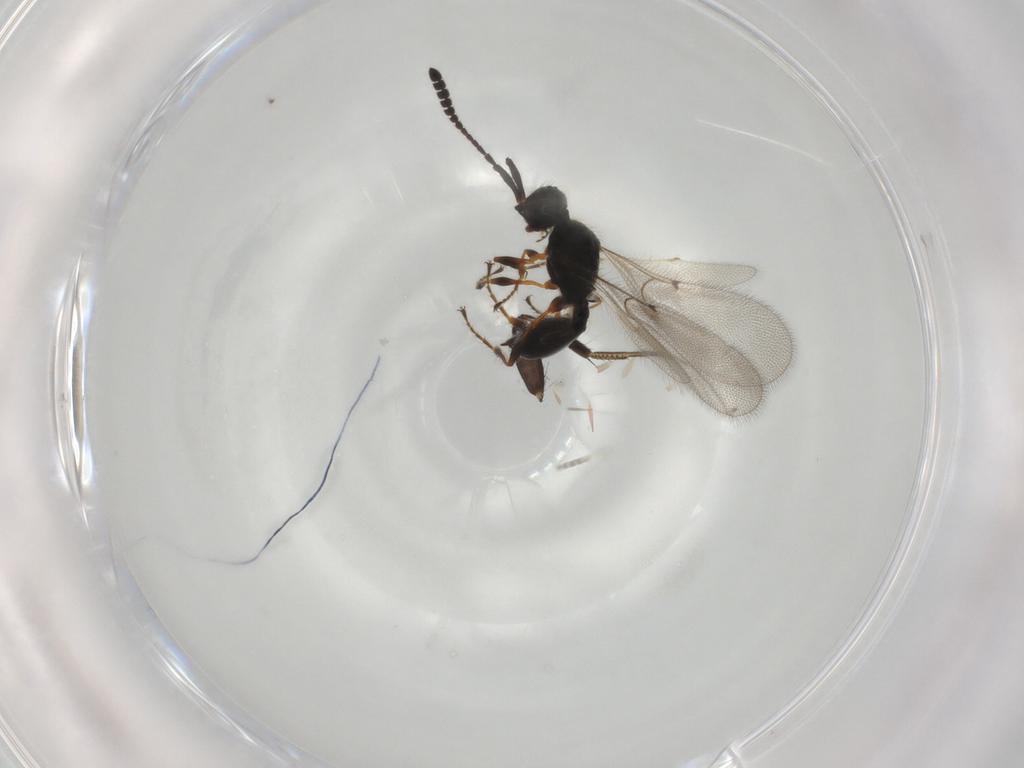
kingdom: Animalia
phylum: Arthropoda
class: Insecta
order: Hymenoptera
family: Diapriidae
